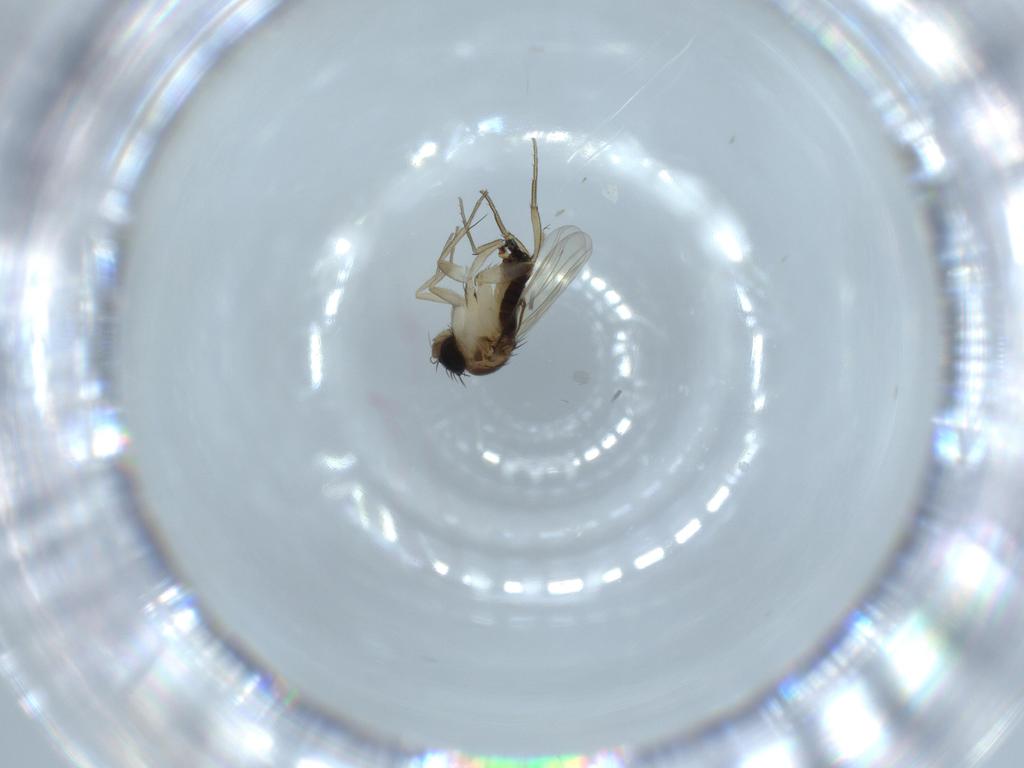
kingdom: Animalia
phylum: Arthropoda
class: Insecta
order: Diptera
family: Phoridae
